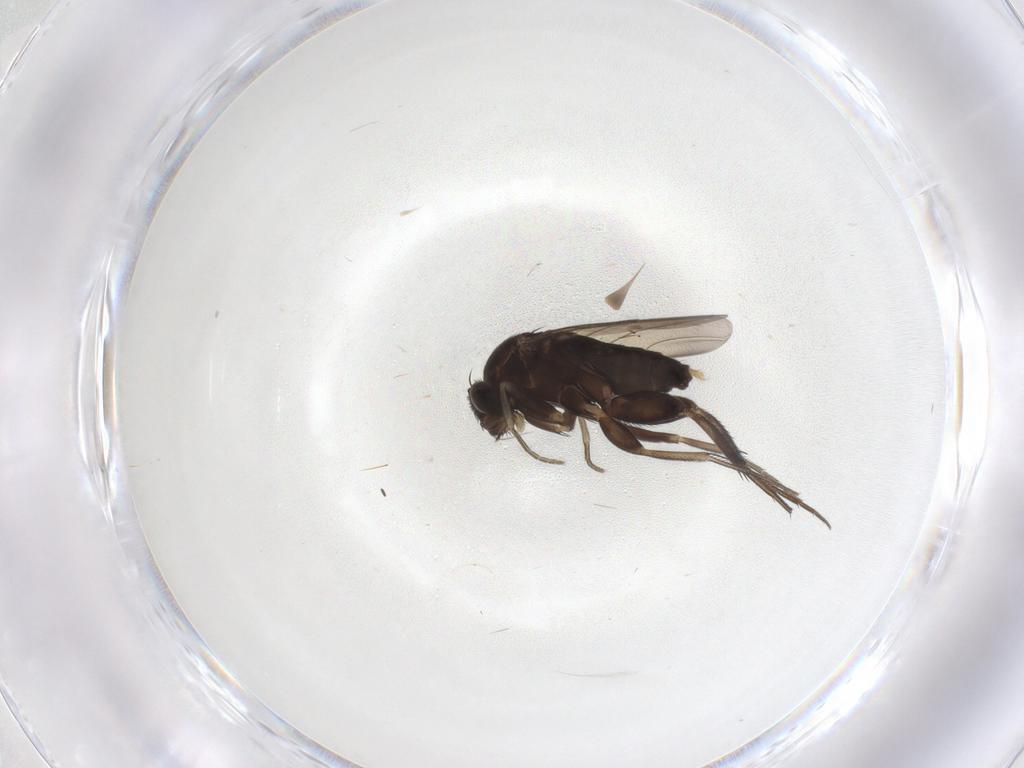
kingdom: Animalia
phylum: Arthropoda
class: Insecta
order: Diptera
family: Phoridae
